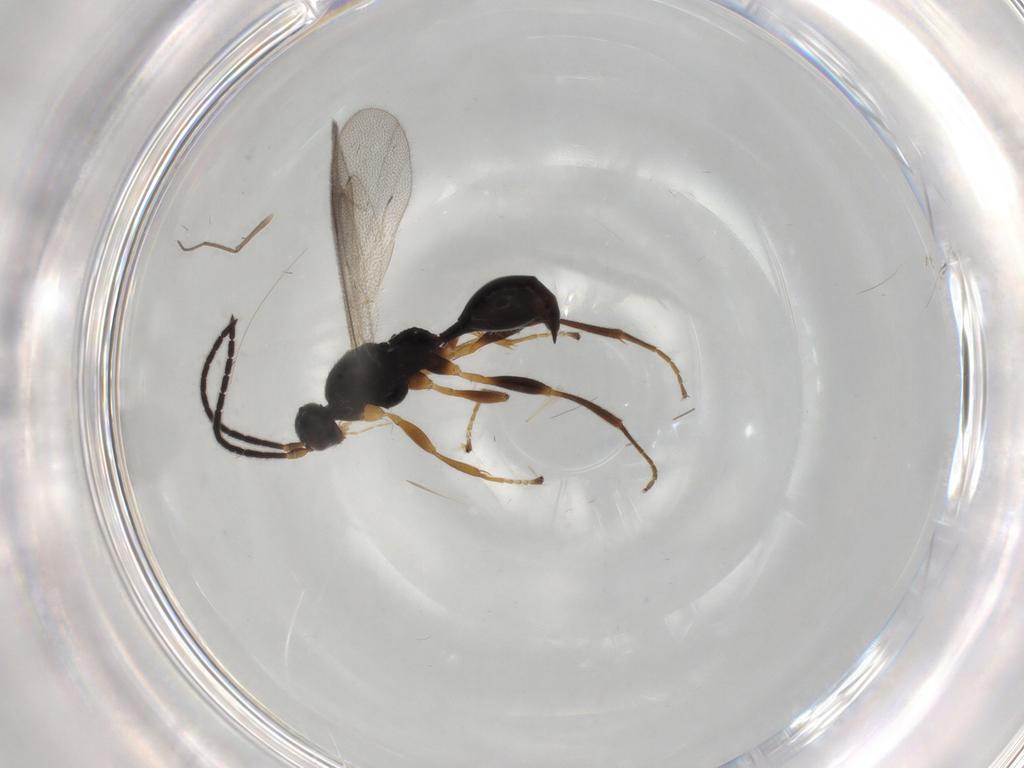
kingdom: Animalia
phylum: Arthropoda
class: Insecta
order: Hymenoptera
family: Proctotrupidae
